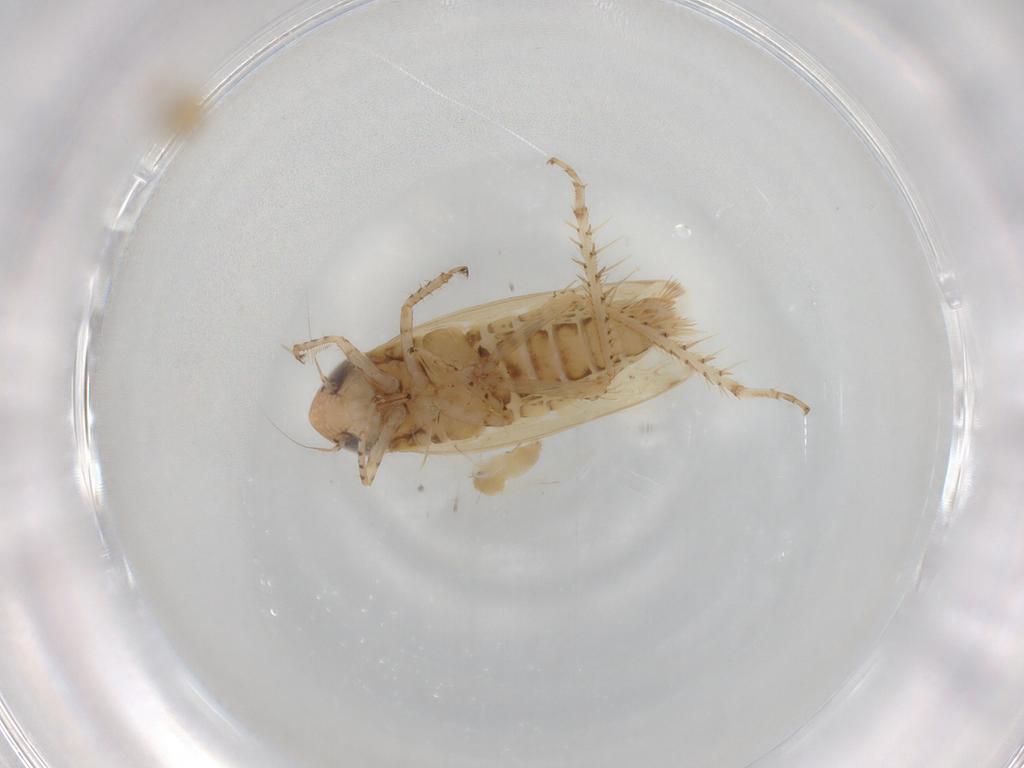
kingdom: Animalia
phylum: Arthropoda
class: Insecta
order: Hemiptera
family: Cicadellidae
